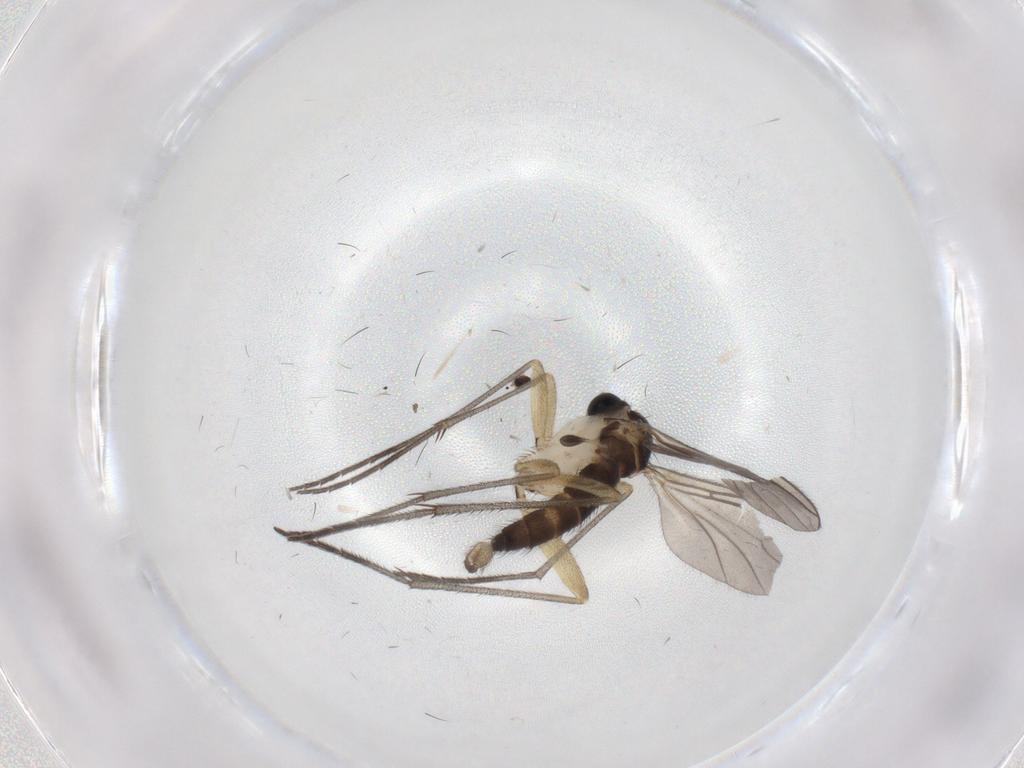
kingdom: Animalia
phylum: Arthropoda
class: Insecta
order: Diptera
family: Sciaridae
